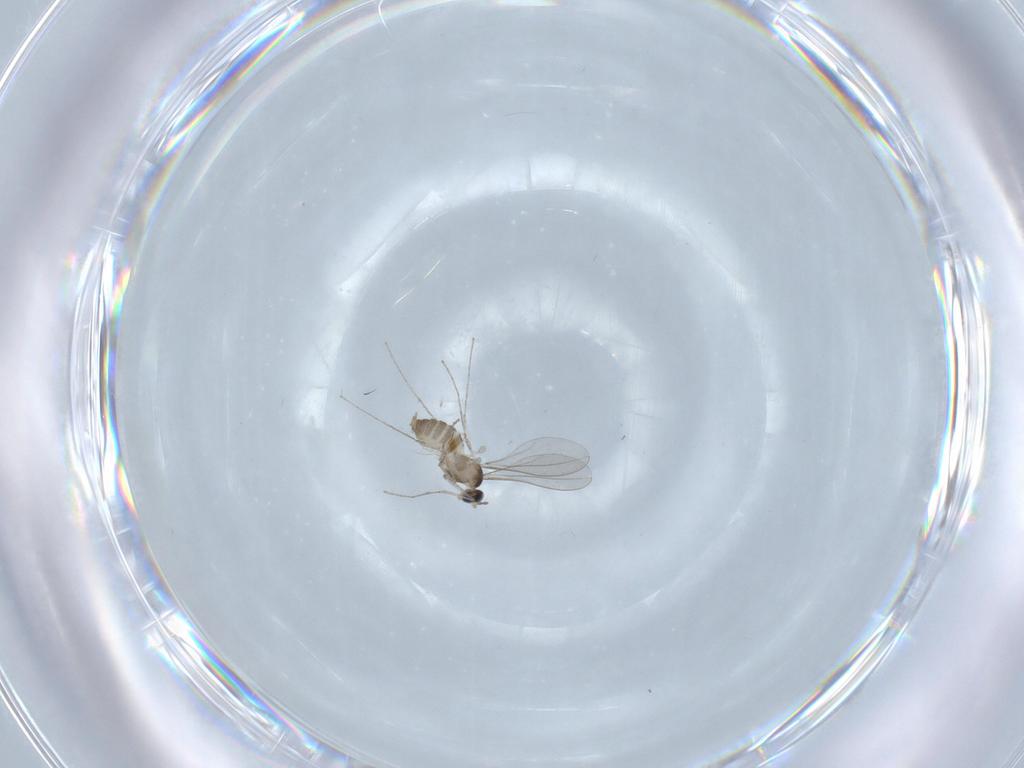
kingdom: Animalia
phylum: Arthropoda
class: Insecta
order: Diptera
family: Cecidomyiidae
